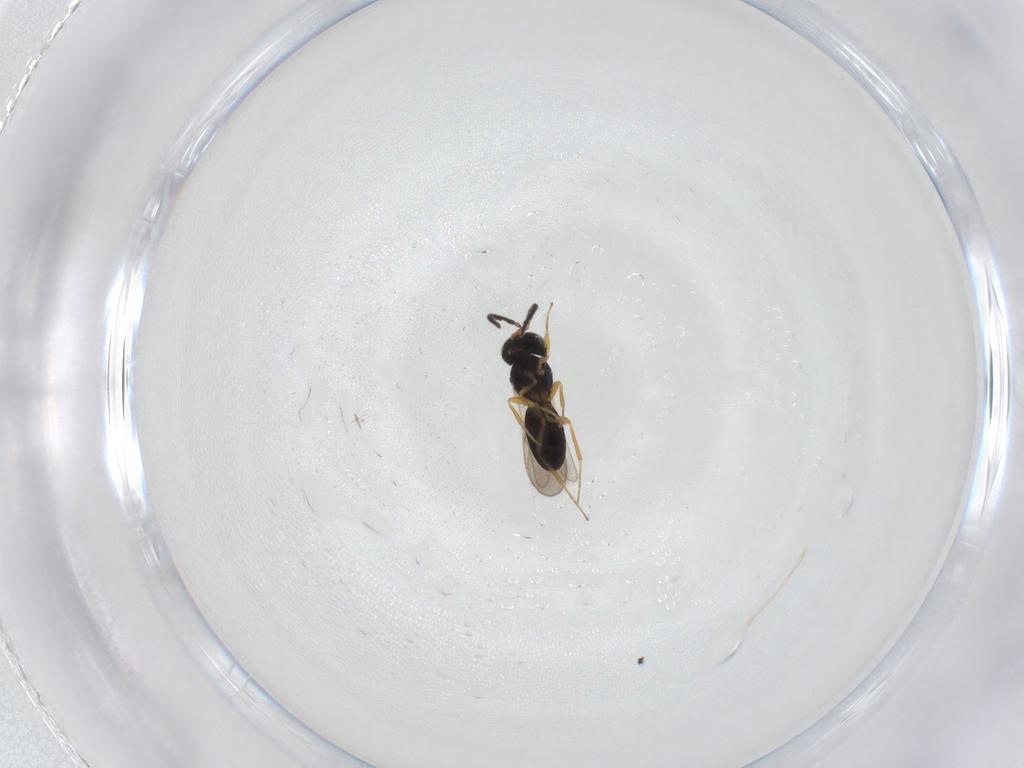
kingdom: Animalia
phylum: Arthropoda
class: Insecta
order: Hymenoptera
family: Scelionidae
